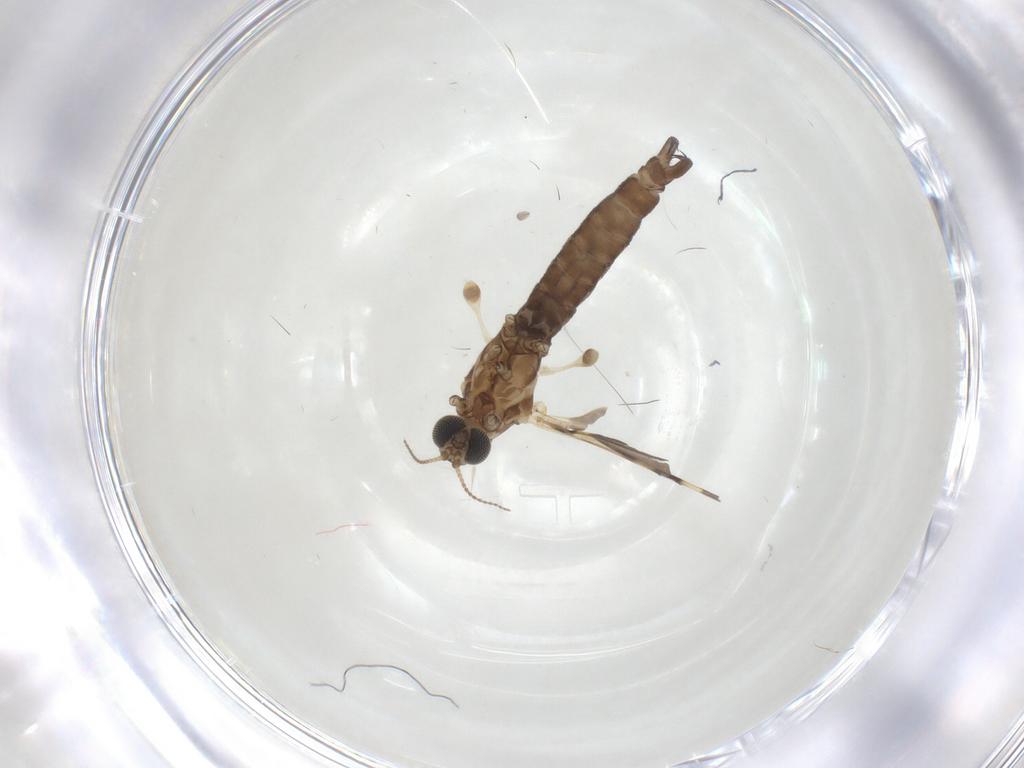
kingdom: Animalia
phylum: Arthropoda
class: Insecta
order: Diptera
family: Limoniidae
